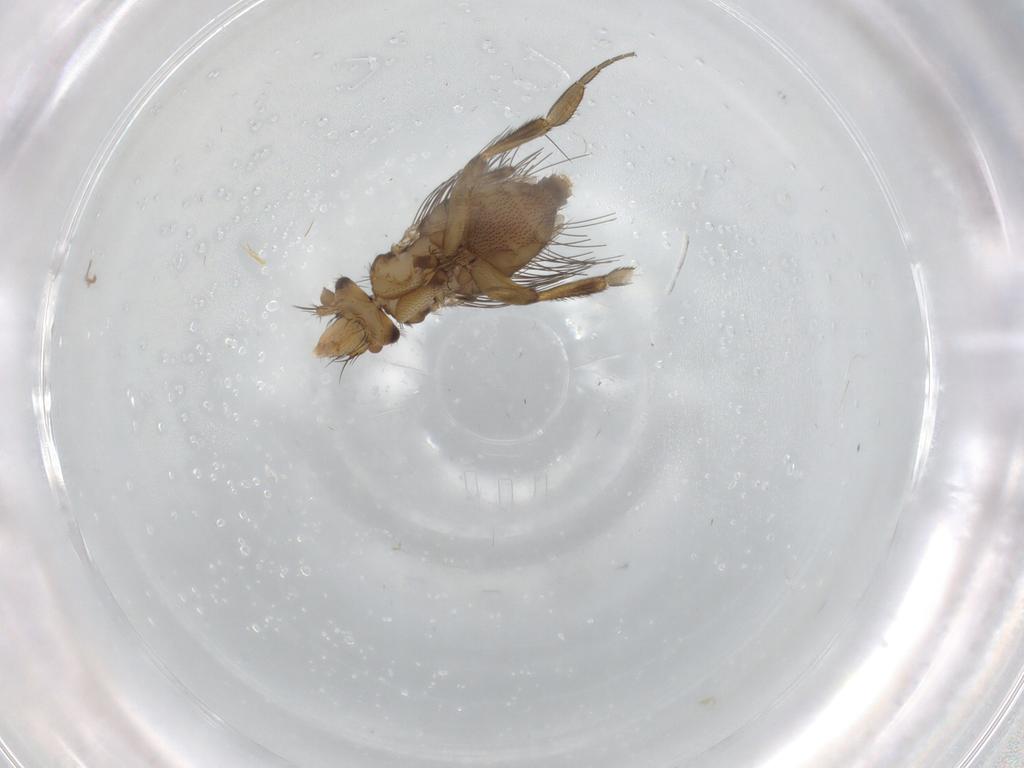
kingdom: Animalia
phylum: Arthropoda
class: Insecta
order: Diptera
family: Phoridae
